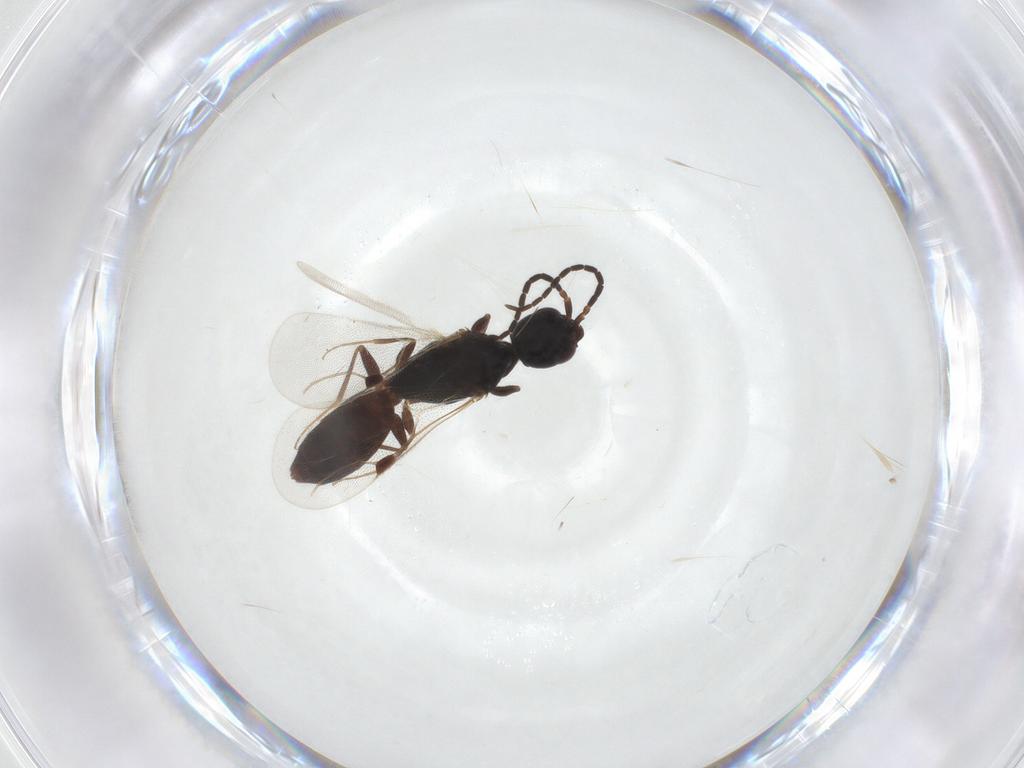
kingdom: Animalia
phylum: Arthropoda
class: Insecta
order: Hymenoptera
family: Bethylidae
